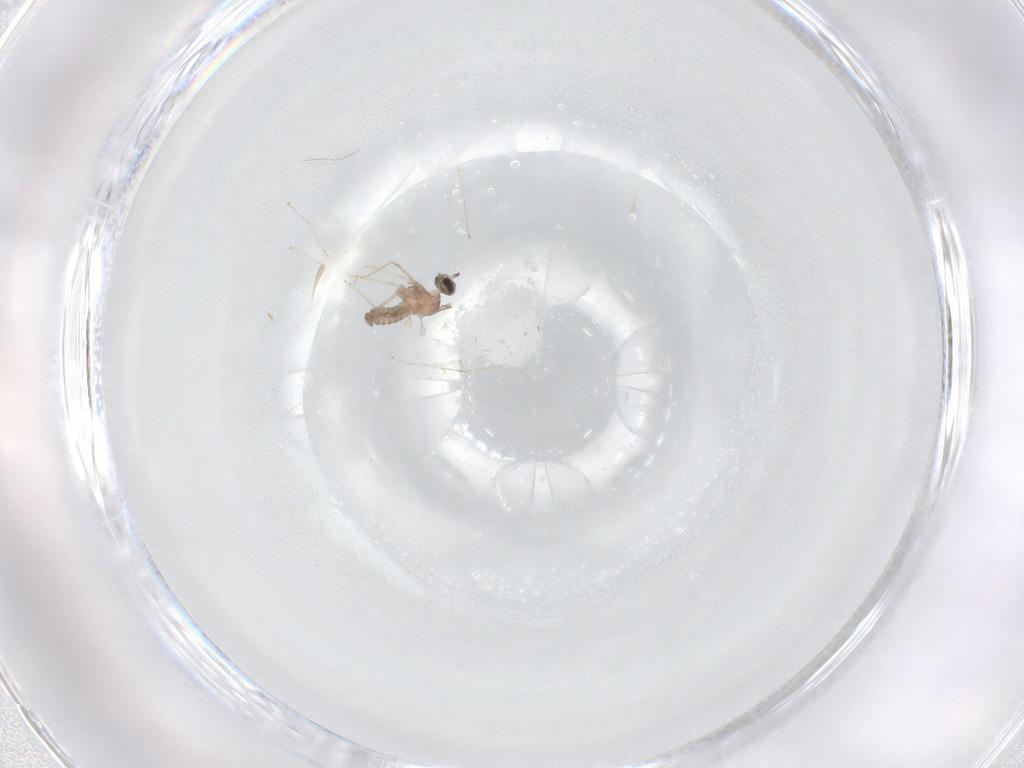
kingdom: Animalia
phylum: Arthropoda
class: Insecta
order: Diptera
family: Cecidomyiidae
